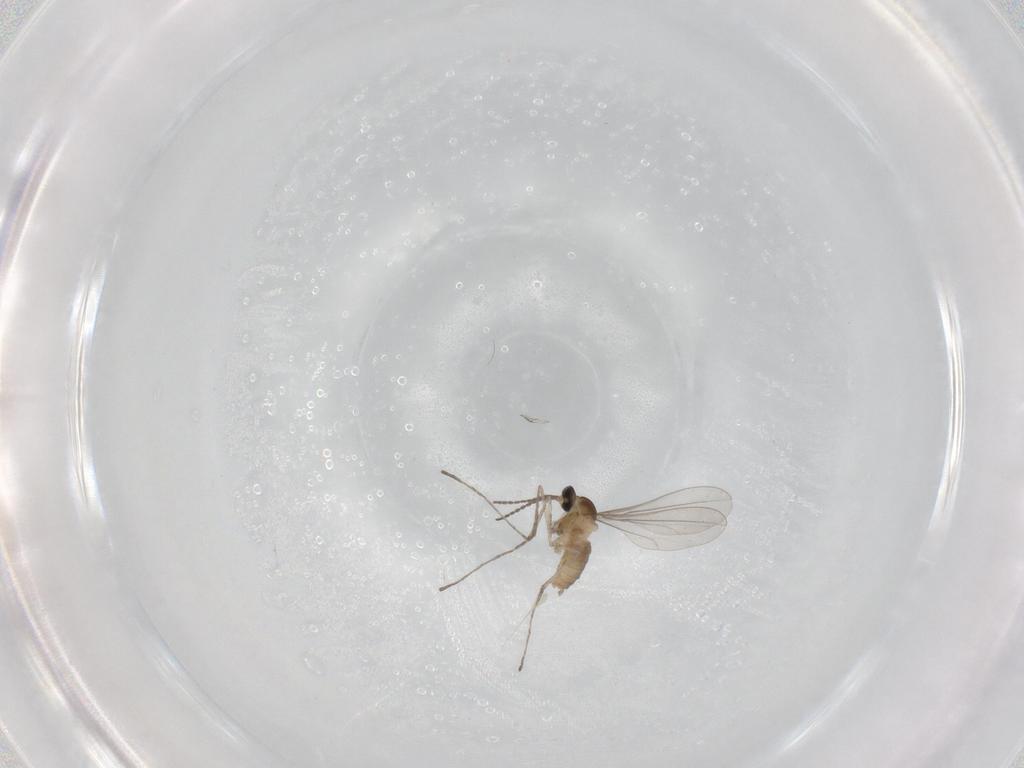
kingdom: Animalia
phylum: Arthropoda
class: Insecta
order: Diptera
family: Cecidomyiidae
